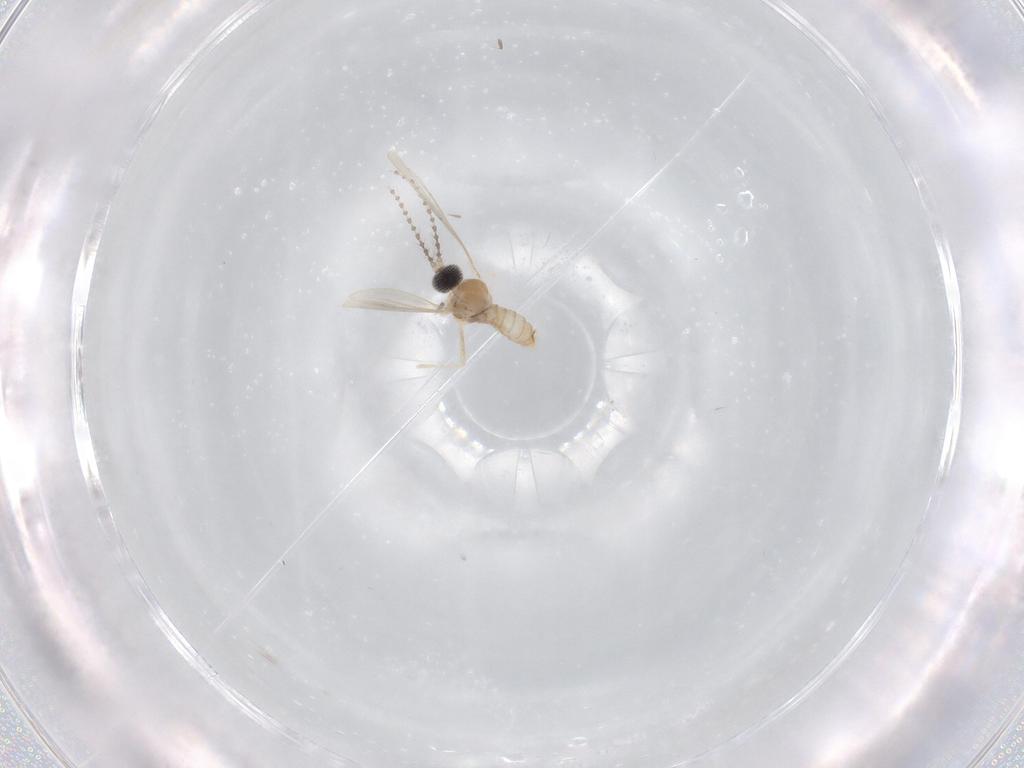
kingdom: Animalia
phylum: Arthropoda
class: Insecta
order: Diptera
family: Cecidomyiidae
